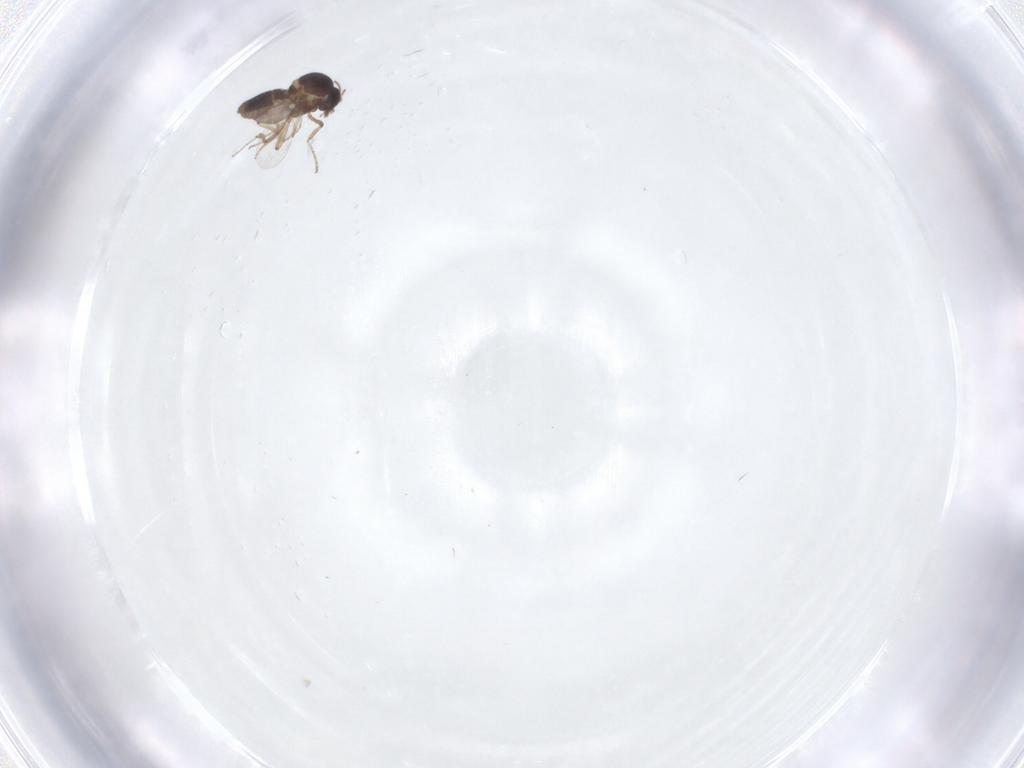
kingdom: Animalia
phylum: Arthropoda
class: Insecta
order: Diptera
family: Ceratopogonidae
